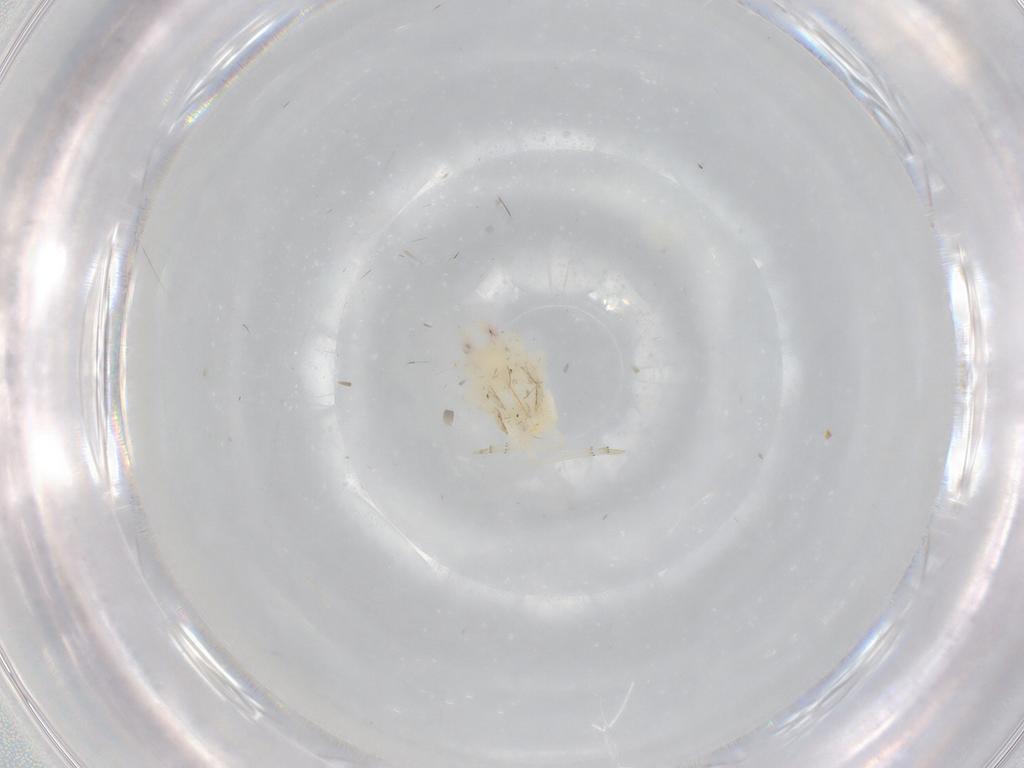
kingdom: Animalia
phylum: Arthropoda
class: Insecta
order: Hemiptera
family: Flatidae
